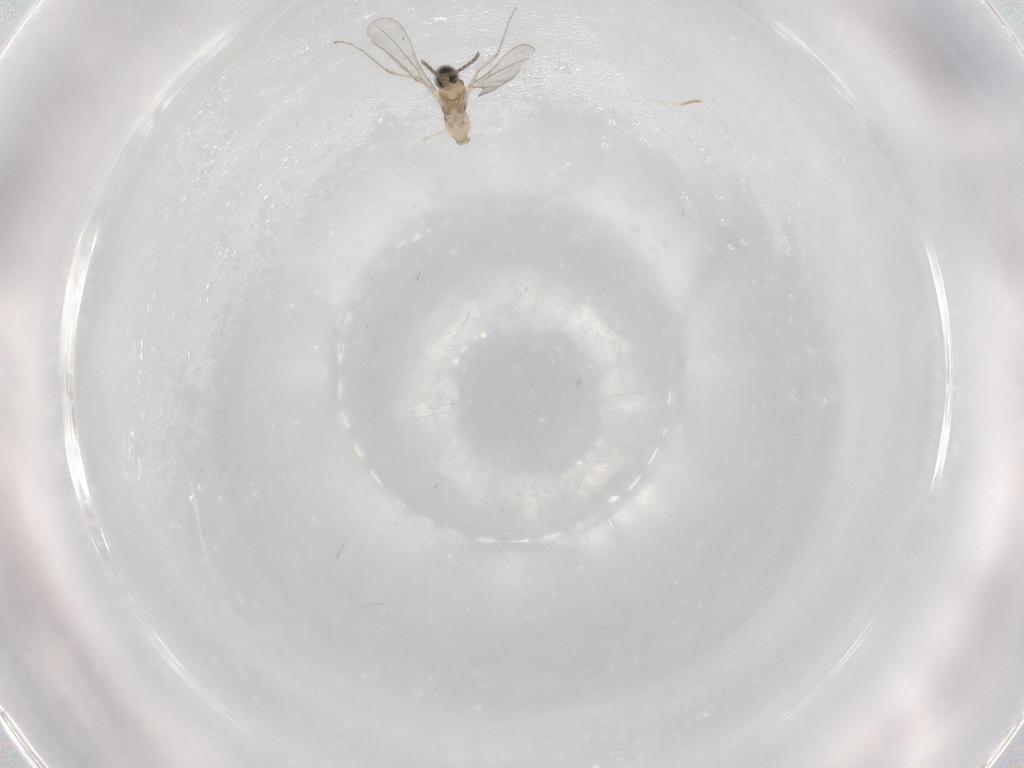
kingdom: Animalia
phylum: Arthropoda
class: Insecta
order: Diptera
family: Cecidomyiidae
